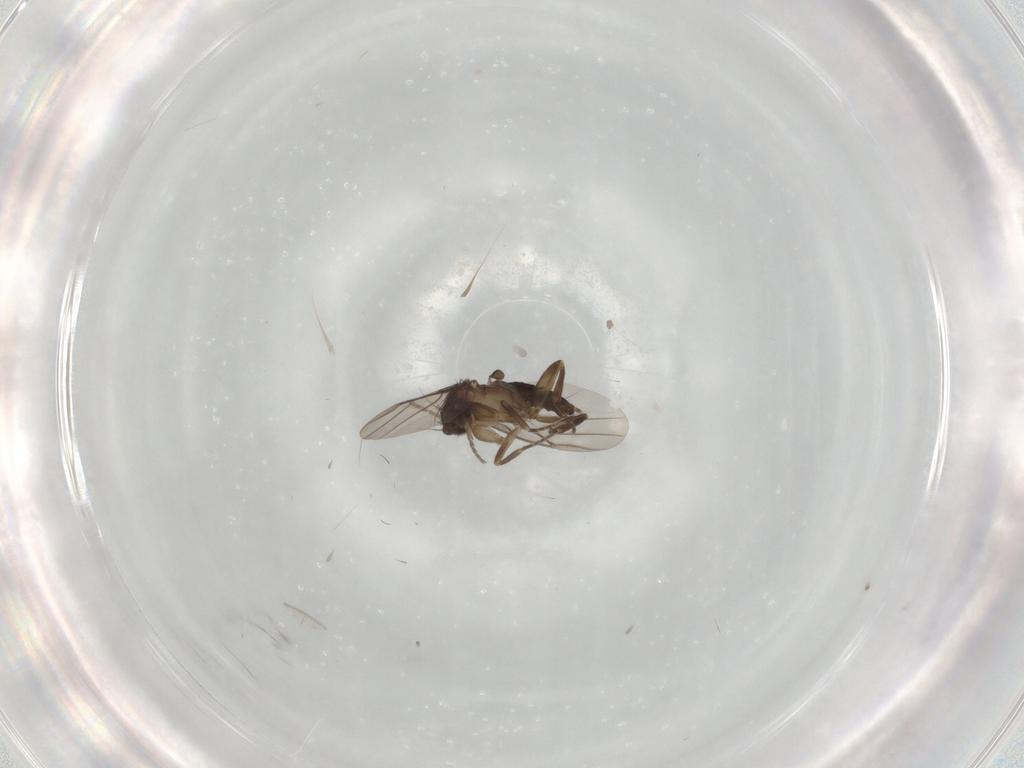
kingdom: Animalia
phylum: Arthropoda
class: Insecta
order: Diptera
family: Phoridae
